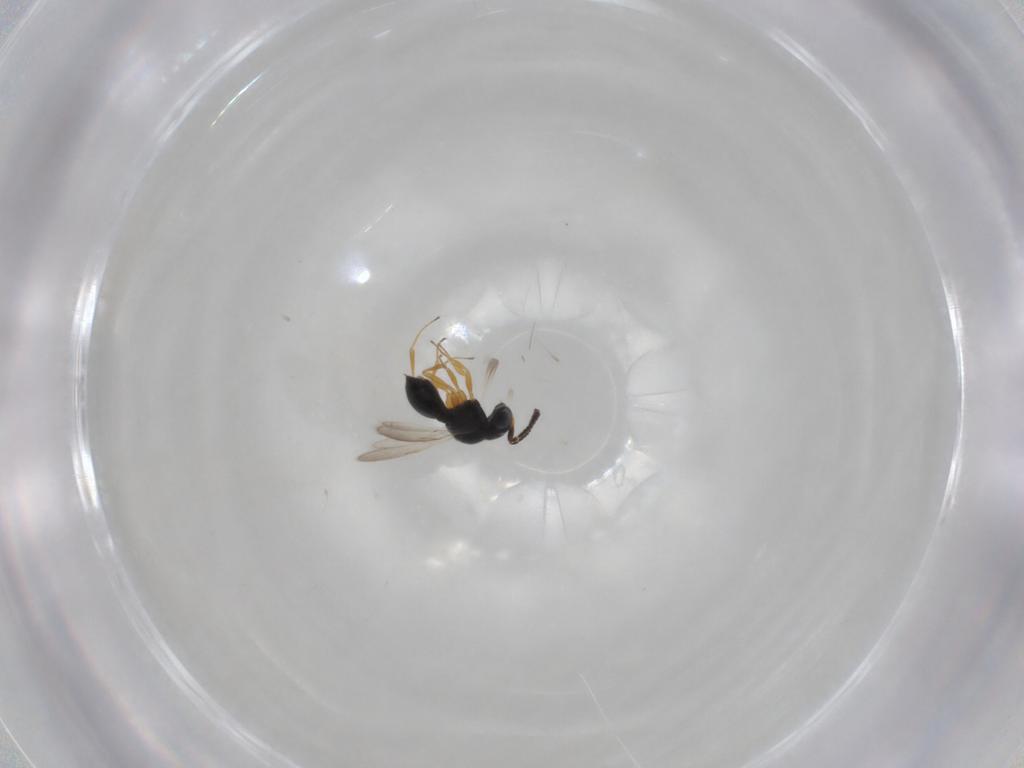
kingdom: Animalia
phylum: Arthropoda
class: Insecta
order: Hymenoptera
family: Scelionidae
